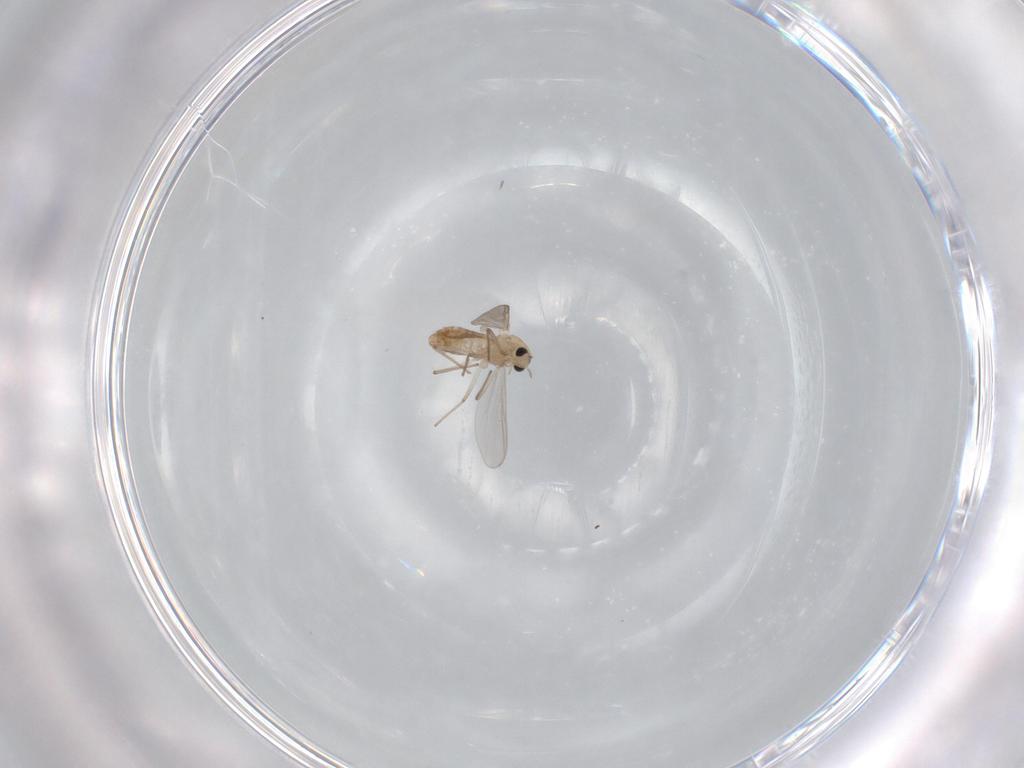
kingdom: Animalia
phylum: Arthropoda
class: Insecta
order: Diptera
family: Chironomidae
